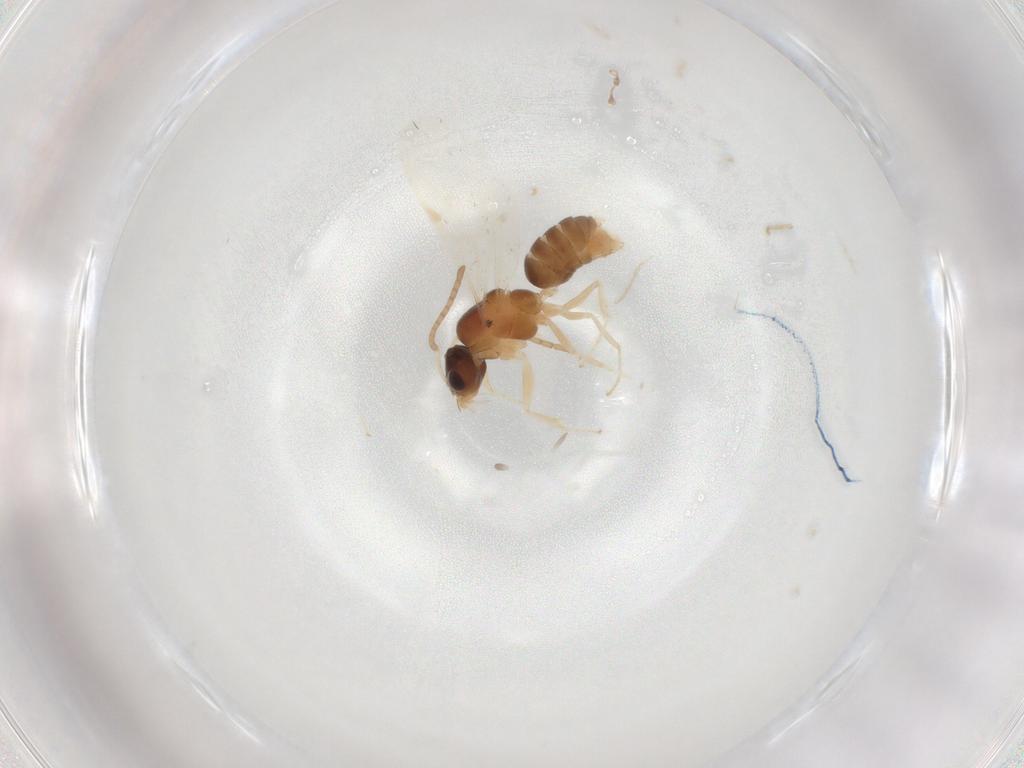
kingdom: Animalia
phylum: Arthropoda
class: Insecta
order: Hymenoptera
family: Formicidae
